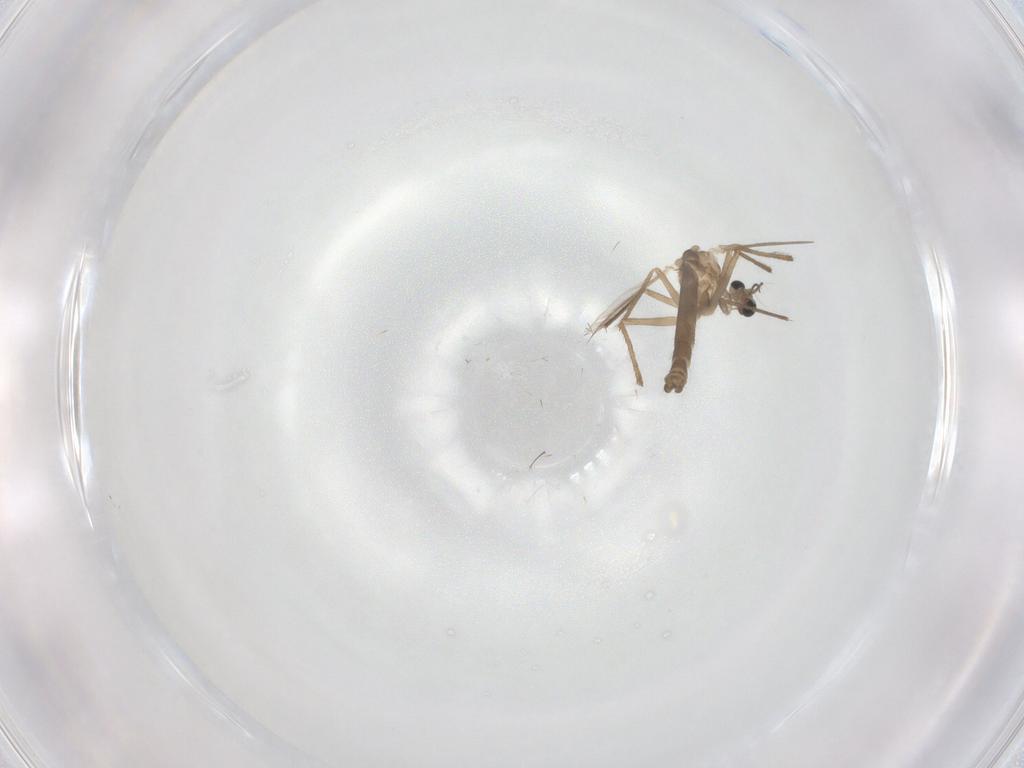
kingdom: Animalia
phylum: Arthropoda
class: Insecta
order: Diptera
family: Chironomidae
